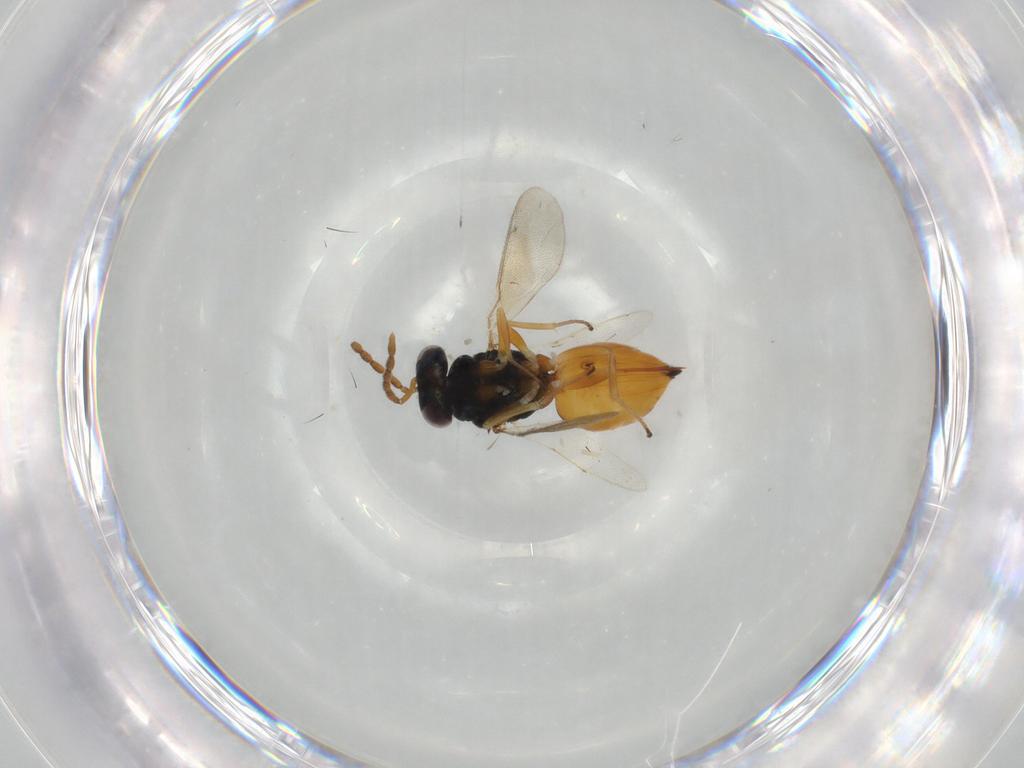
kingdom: Animalia
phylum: Arthropoda
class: Insecta
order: Hymenoptera
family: Eulophidae
